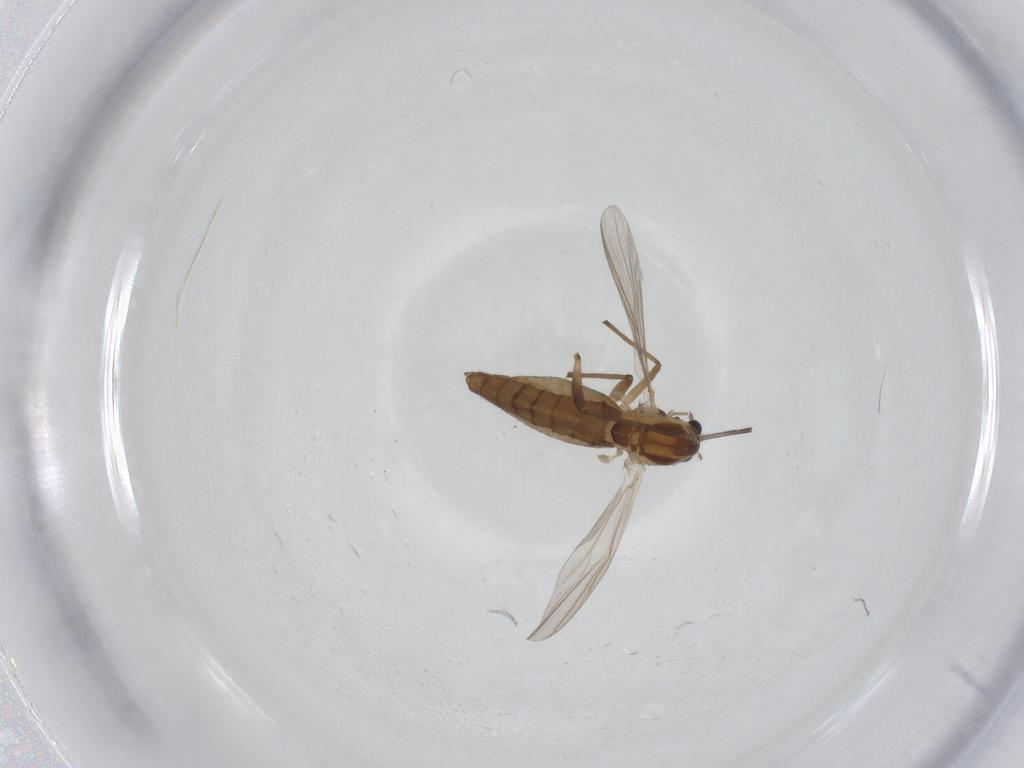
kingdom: Animalia
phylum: Arthropoda
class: Insecta
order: Diptera
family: Sciaridae
